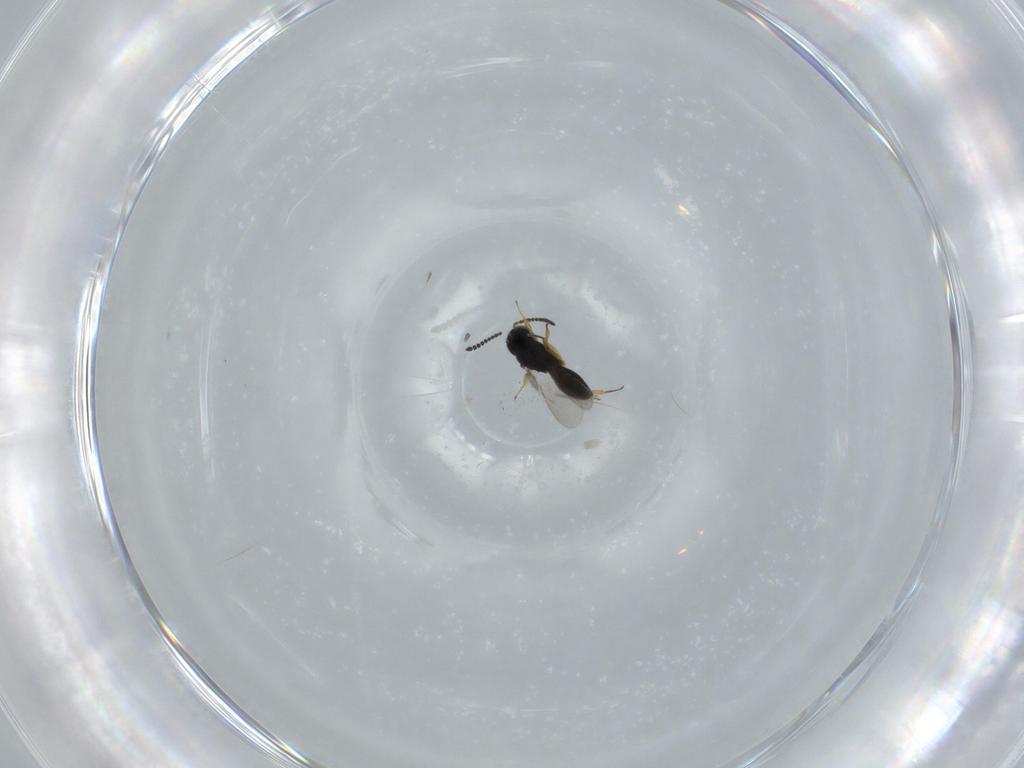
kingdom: Animalia
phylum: Arthropoda
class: Insecta
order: Hymenoptera
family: Scelionidae
